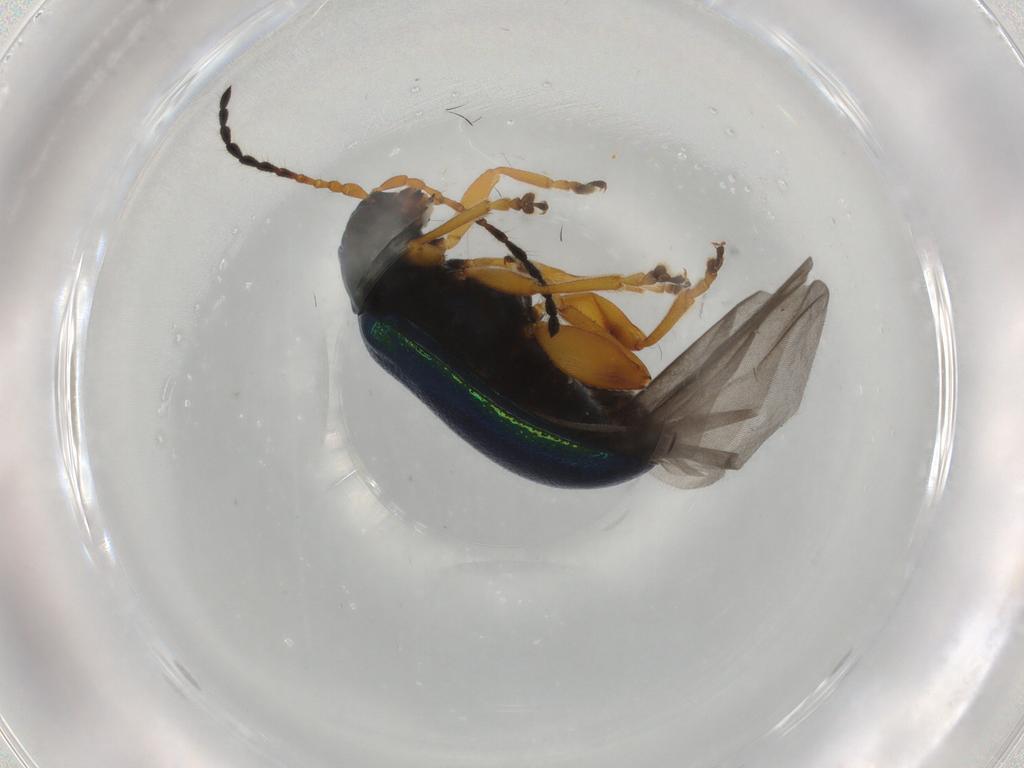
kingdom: Animalia
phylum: Arthropoda
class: Insecta
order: Coleoptera
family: Chrysomelidae
